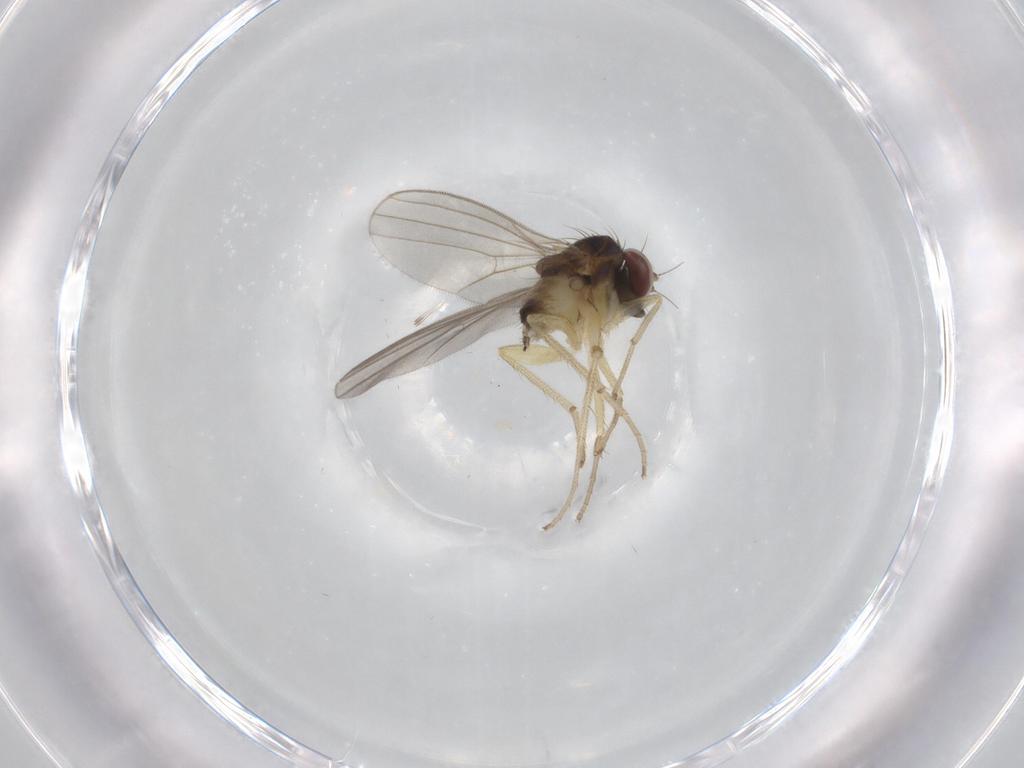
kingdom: Animalia
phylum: Arthropoda
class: Insecta
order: Diptera
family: Dolichopodidae
